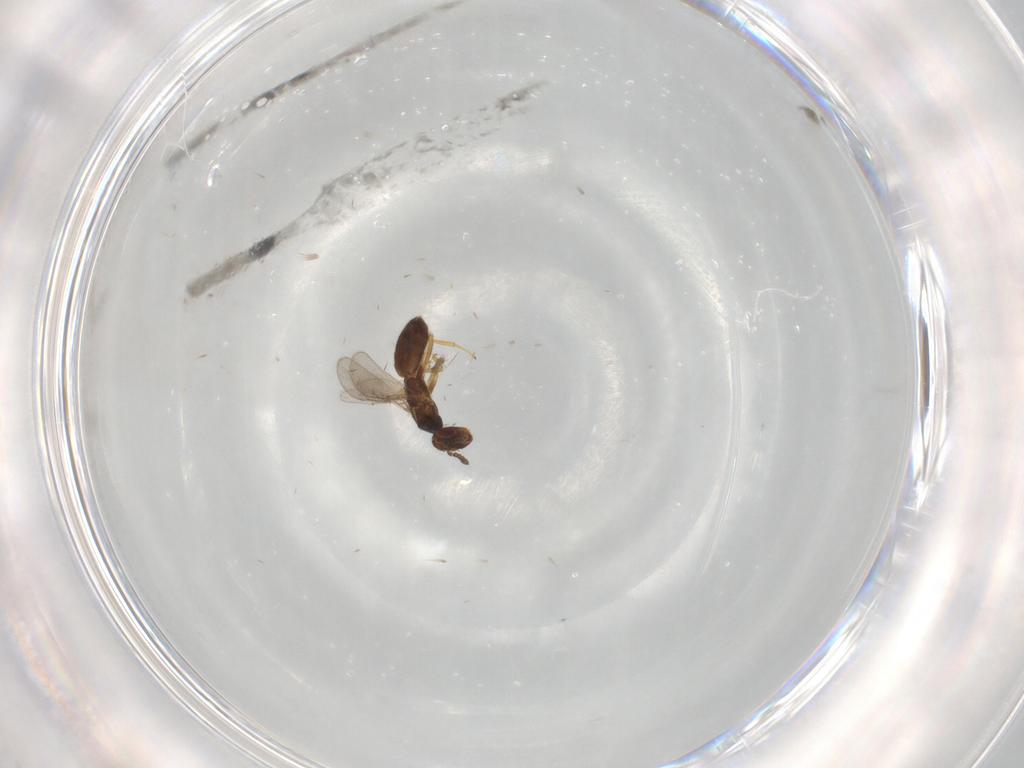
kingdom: Animalia
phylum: Arthropoda
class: Insecta
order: Hymenoptera
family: Eulophidae
